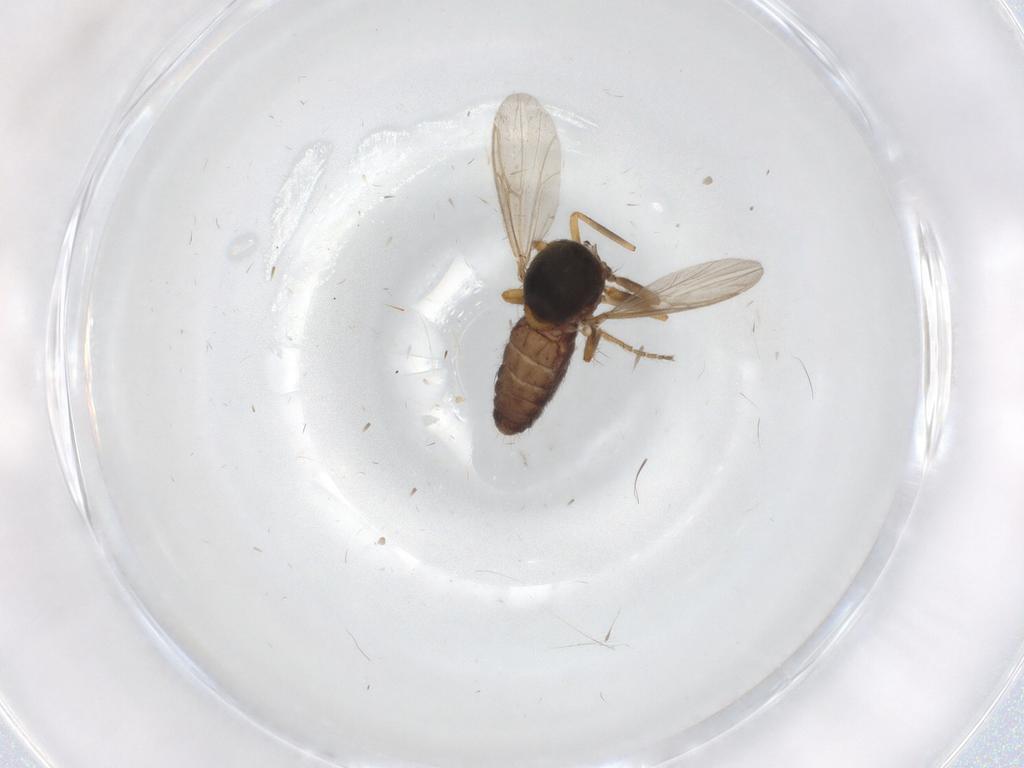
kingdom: Animalia
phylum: Arthropoda
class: Insecta
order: Diptera
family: Ceratopogonidae
